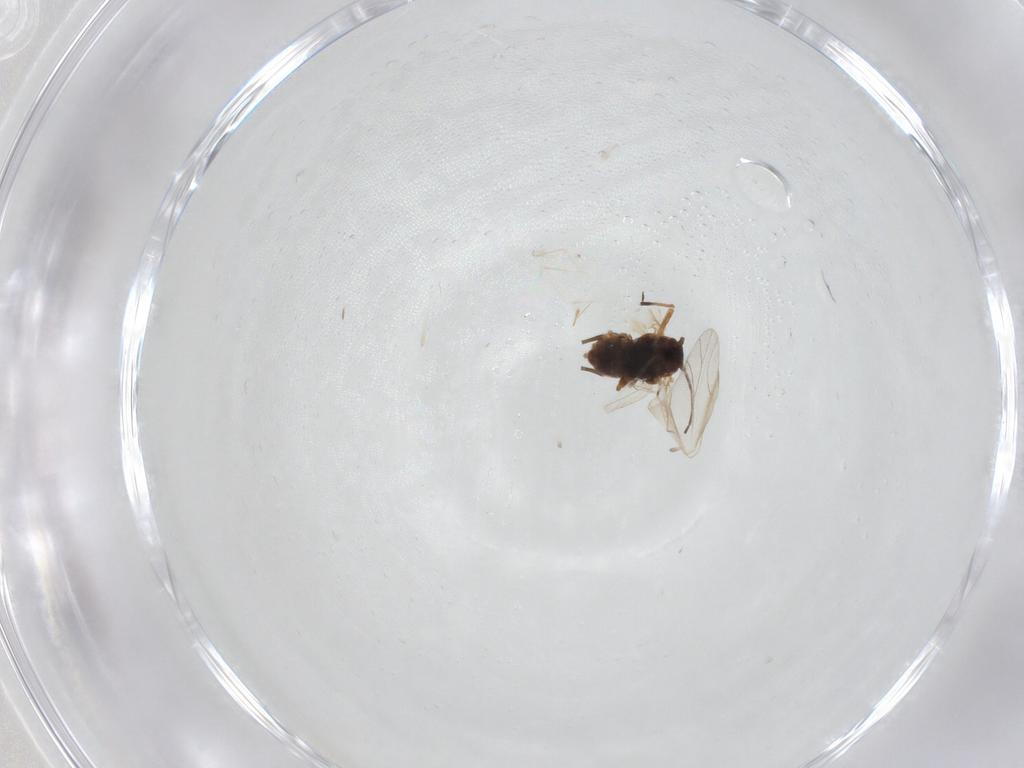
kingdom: Animalia
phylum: Arthropoda
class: Insecta
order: Hemiptera
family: Aphididae
